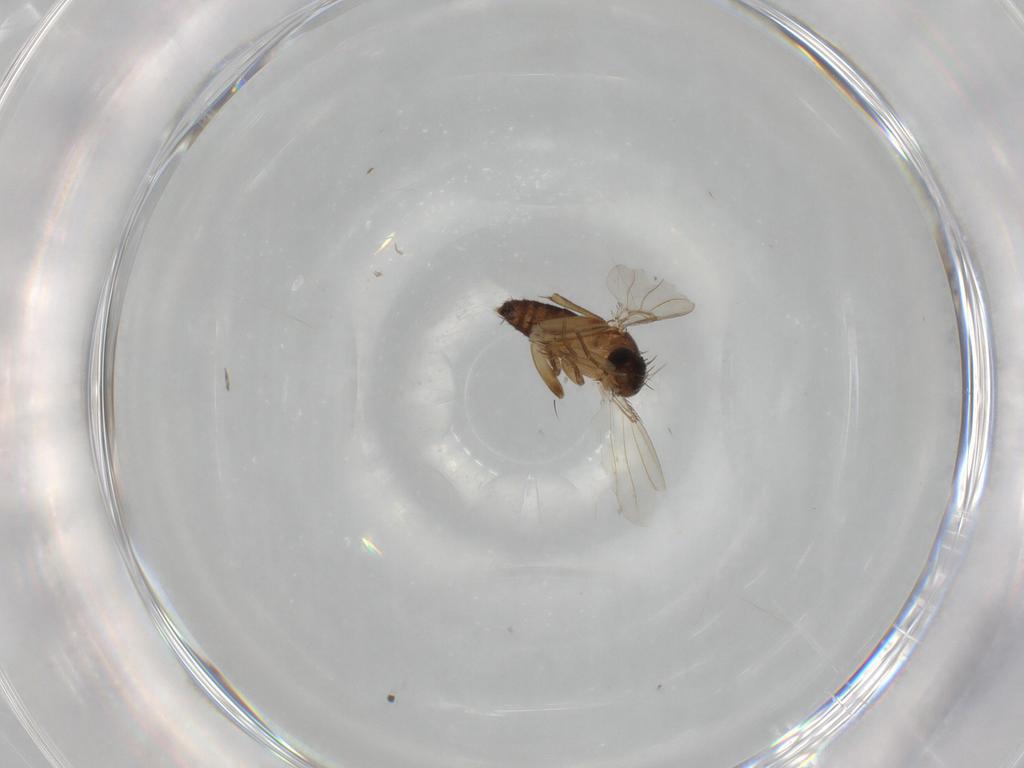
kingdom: Animalia
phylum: Arthropoda
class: Insecta
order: Diptera
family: Phoridae
